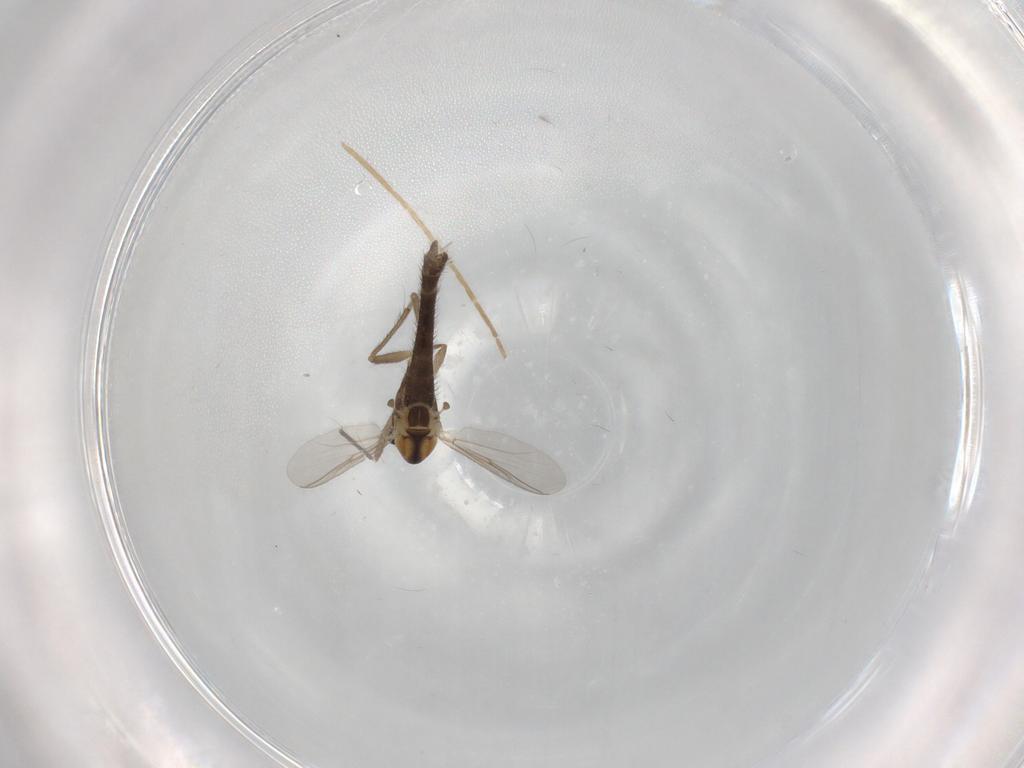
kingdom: Animalia
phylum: Arthropoda
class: Insecta
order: Diptera
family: Chironomidae
